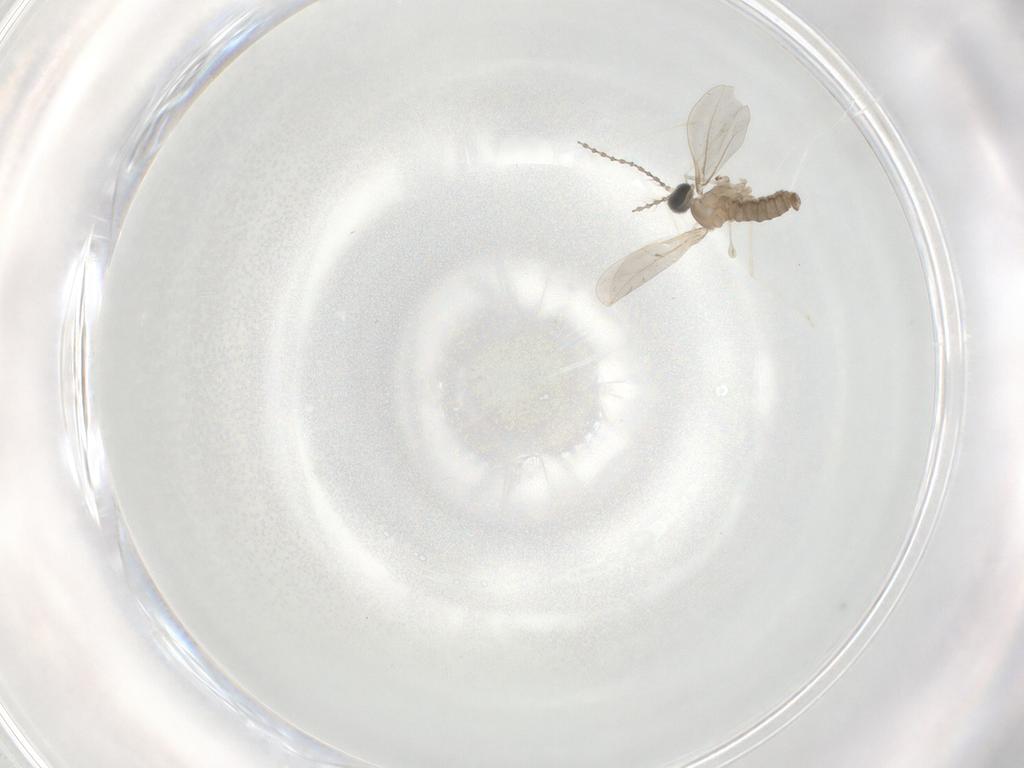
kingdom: Animalia
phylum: Arthropoda
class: Insecta
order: Diptera
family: Cecidomyiidae
